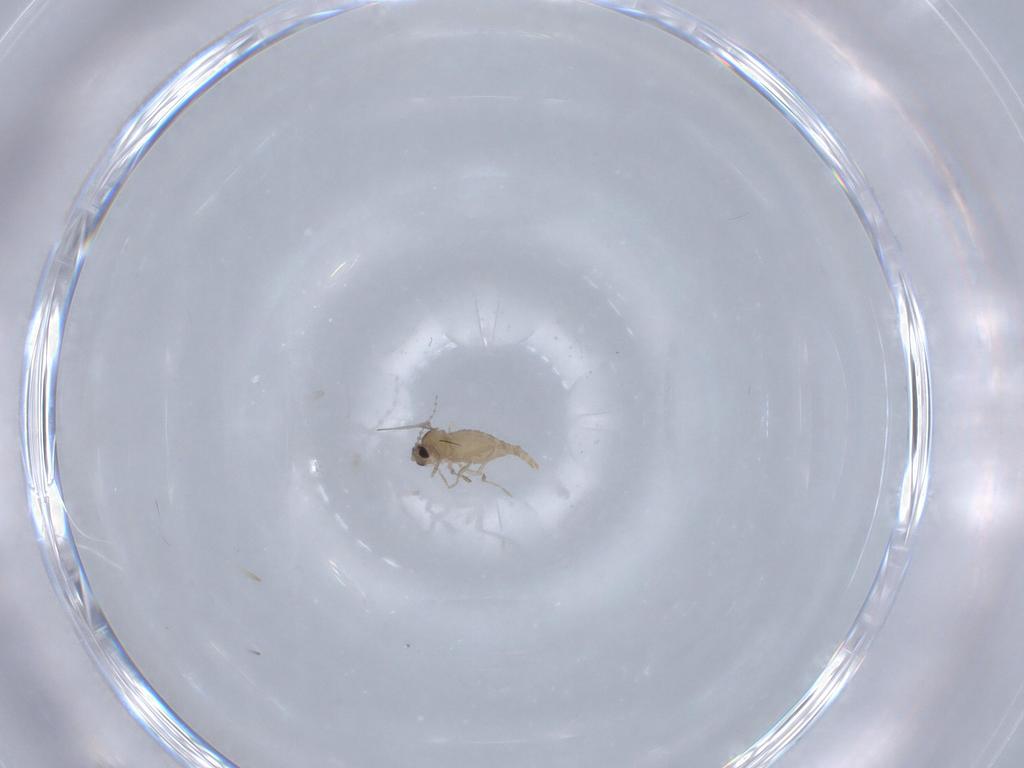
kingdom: Animalia
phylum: Arthropoda
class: Insecta
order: Diptera
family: Cecidomyiidae
